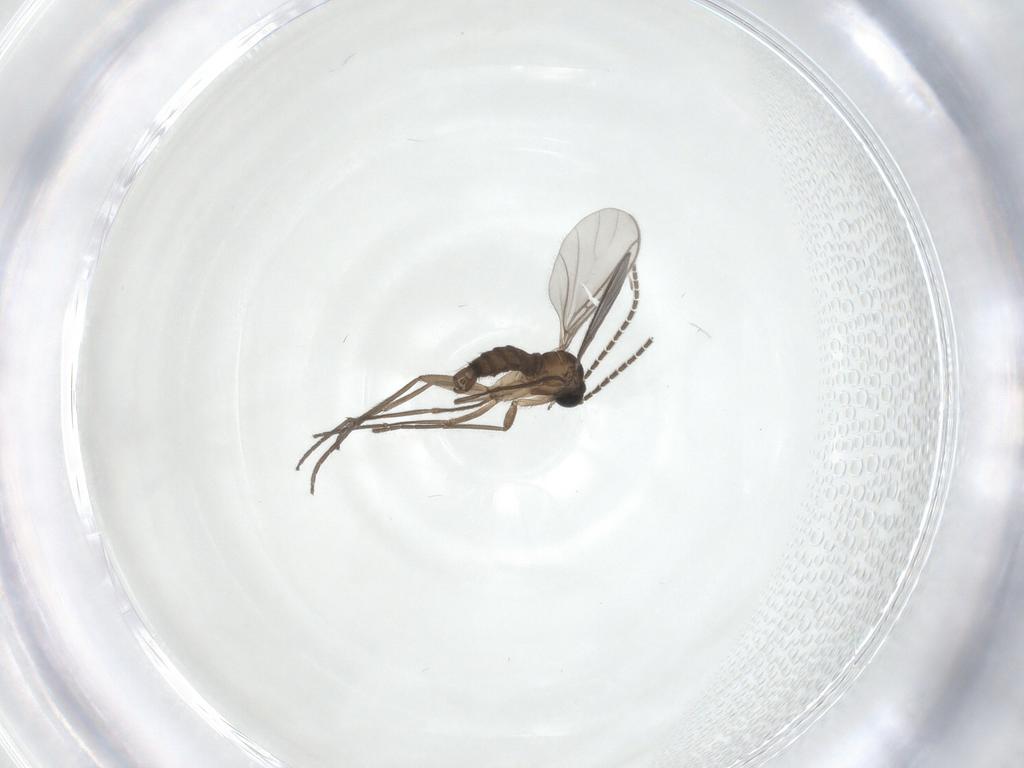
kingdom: Animalia
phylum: Arthropoda
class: Insecta
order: Diptera
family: Sciaridae
